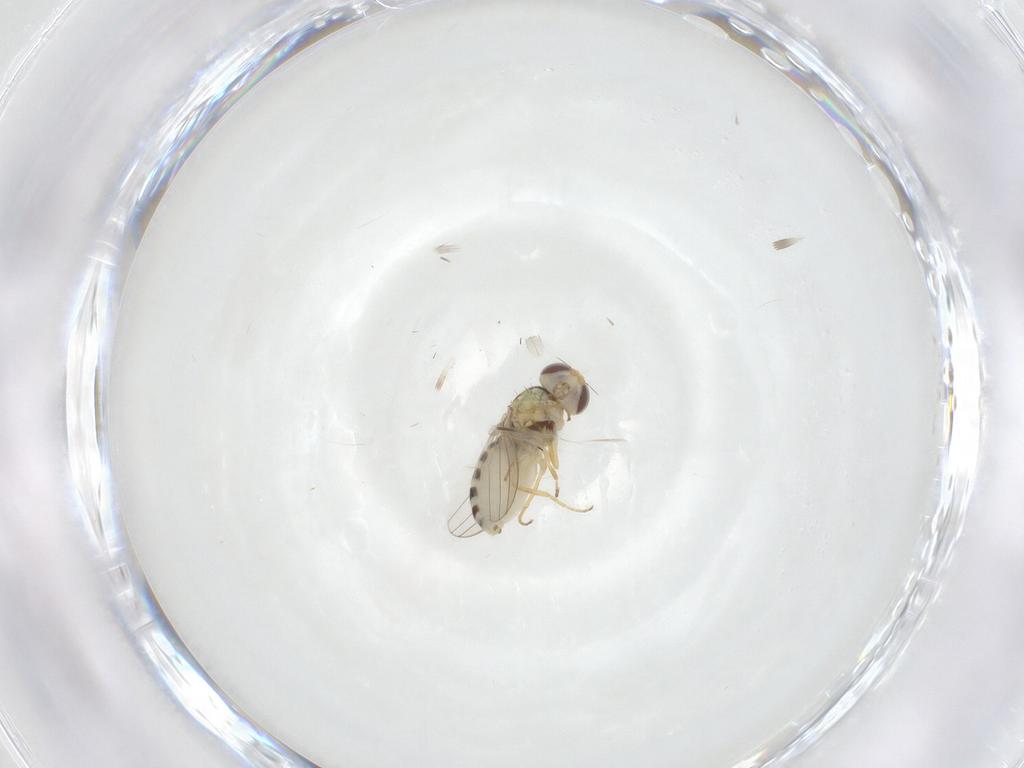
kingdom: Animalia
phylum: Arthropoda
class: Insecta
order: Diptera
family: Chyromyidae
